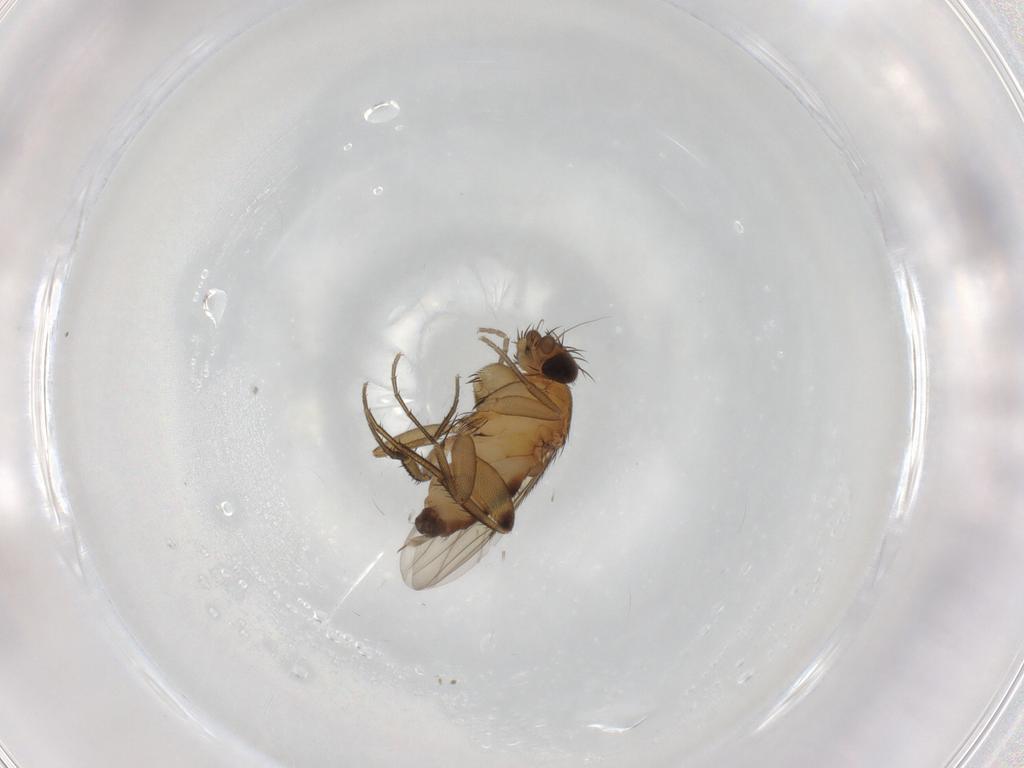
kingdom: Animalia
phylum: Arthropoda
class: Insecta
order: Diptera
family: Phoridae
